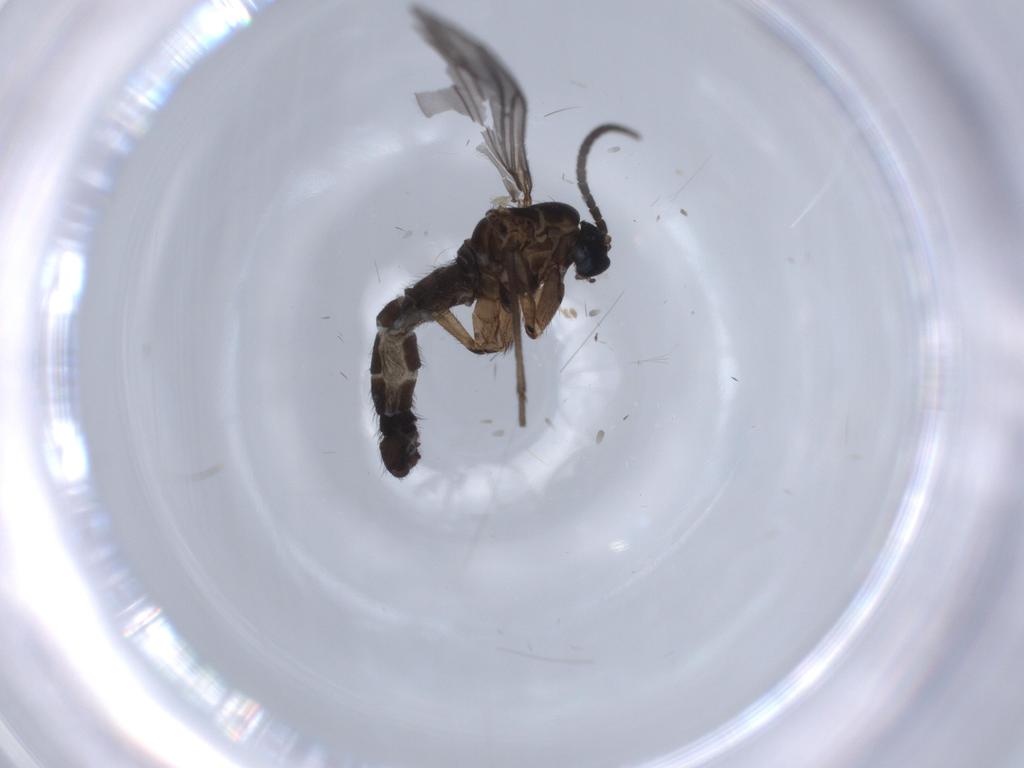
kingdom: Animalia
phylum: Arthropoda
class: Insecta
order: Diptera
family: Sciaridae
